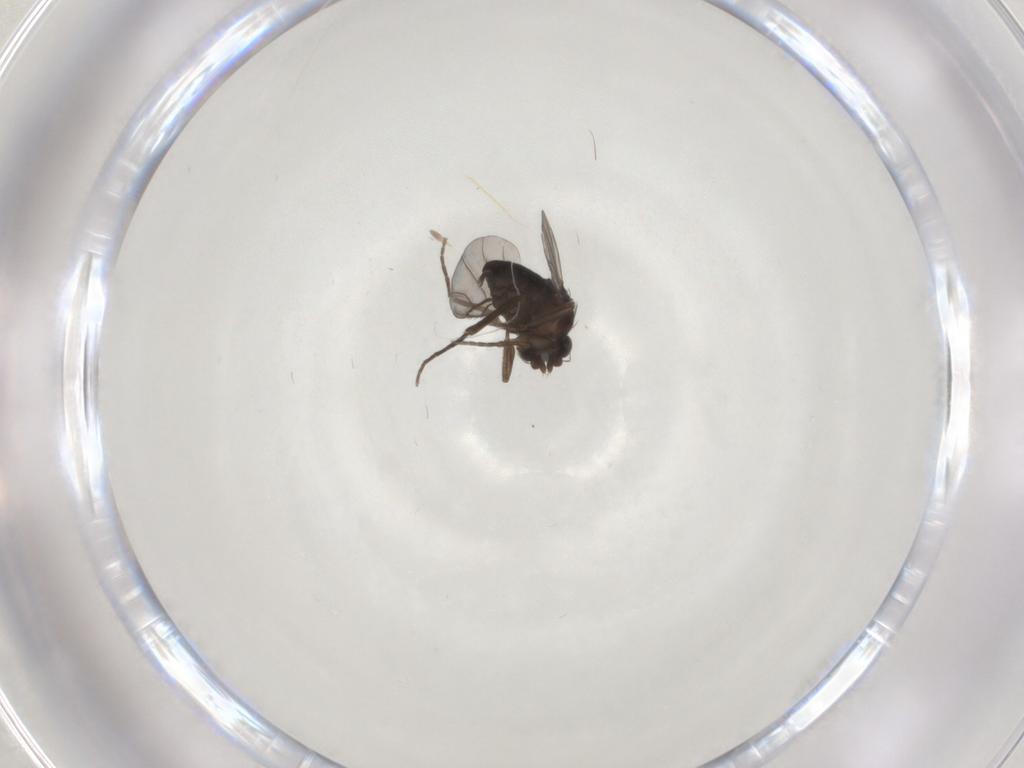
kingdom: Animalia
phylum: Arthropoda
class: Insecta
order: Diptera
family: Phoridae
